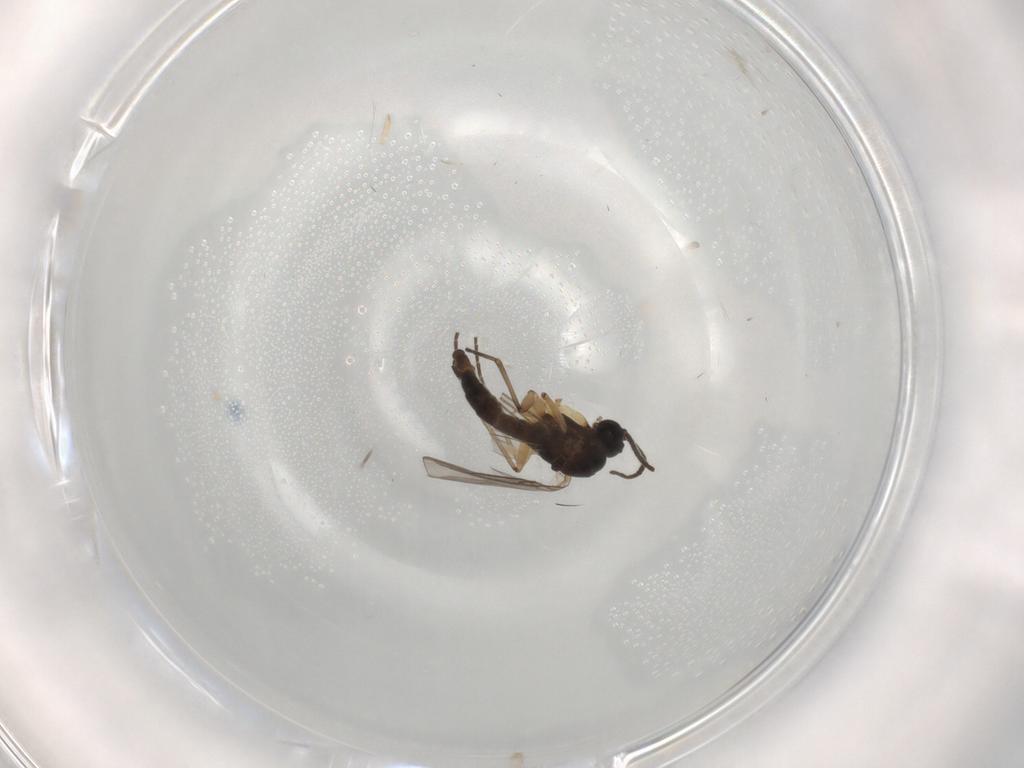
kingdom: Animalia
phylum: Arthropoda
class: Insecta
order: Diptera
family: Sciaridae
